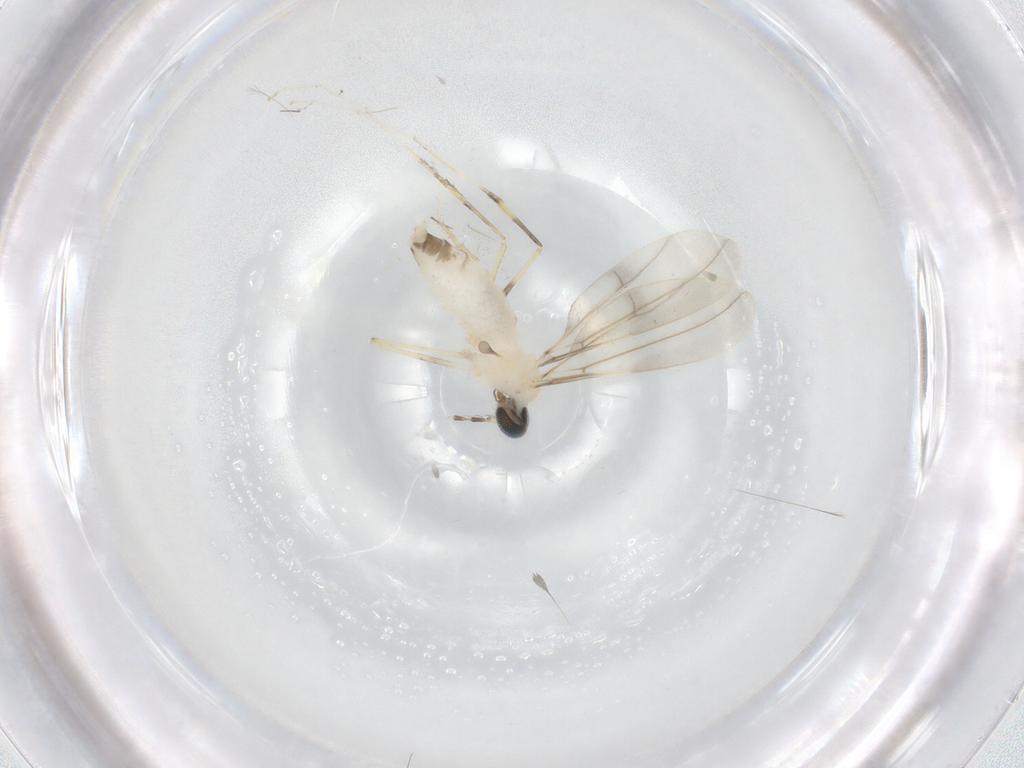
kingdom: Animalia
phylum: Arthropoda
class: Insecta
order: Diptera
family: Cecidomyiidae
